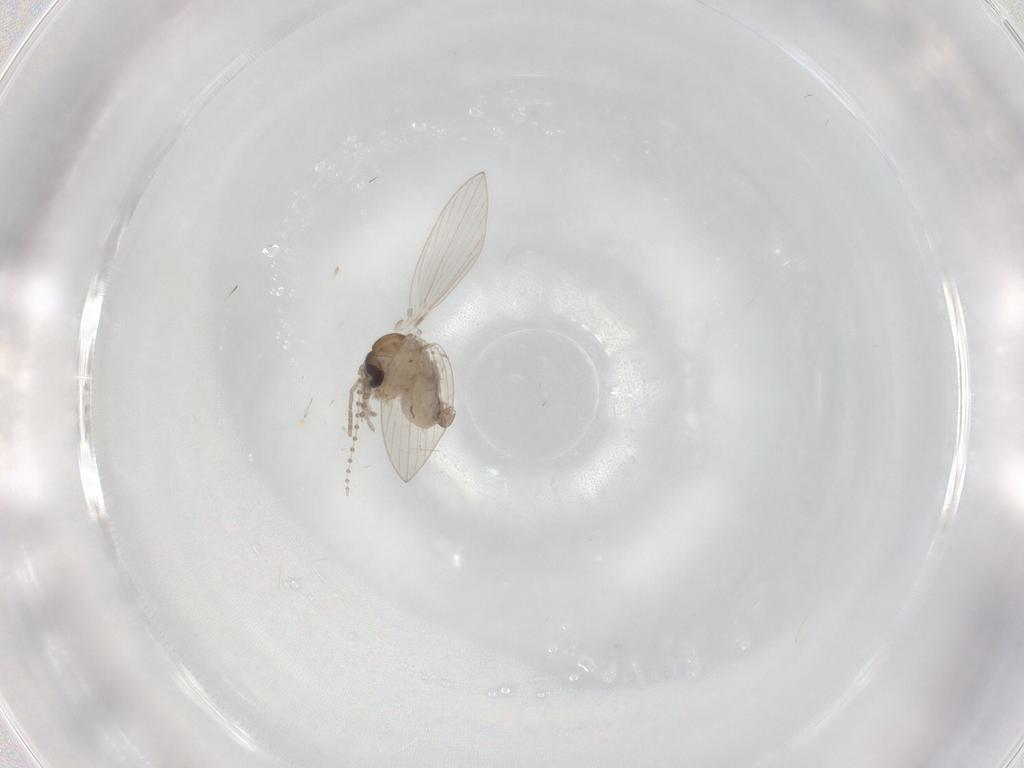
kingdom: Animalia
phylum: Arthropoda
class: Insecta
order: Diptera
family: Psychodidae
